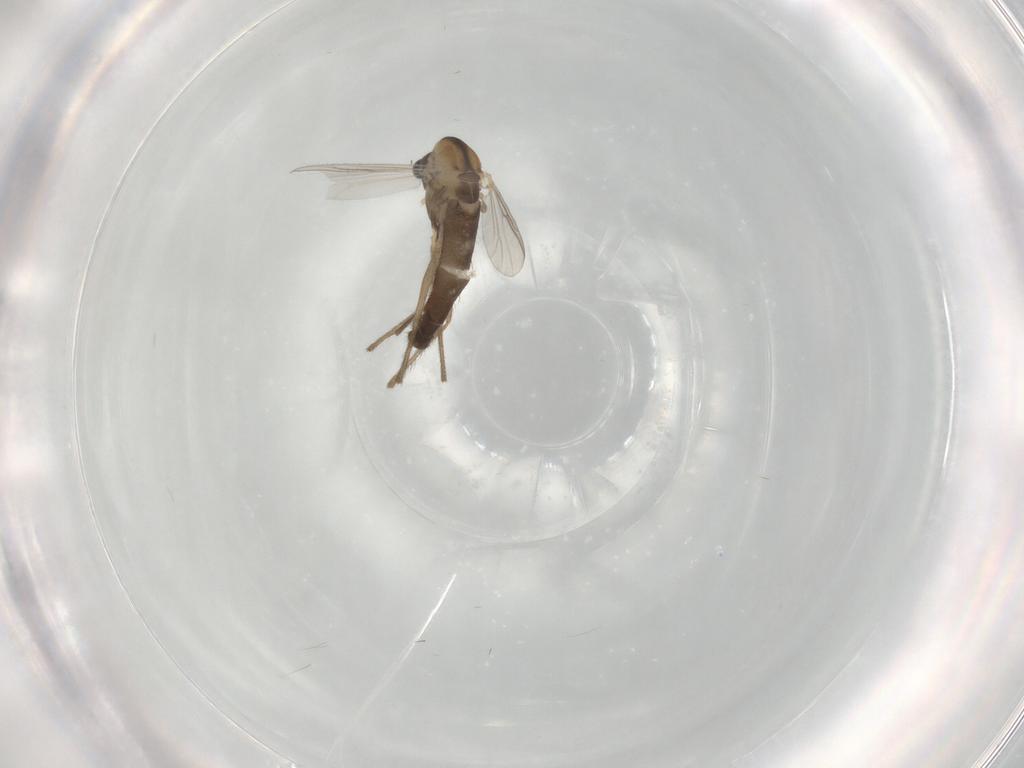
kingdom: Animalia
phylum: Arthropoda
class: Insecta
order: Diptera
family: Chironomidae
